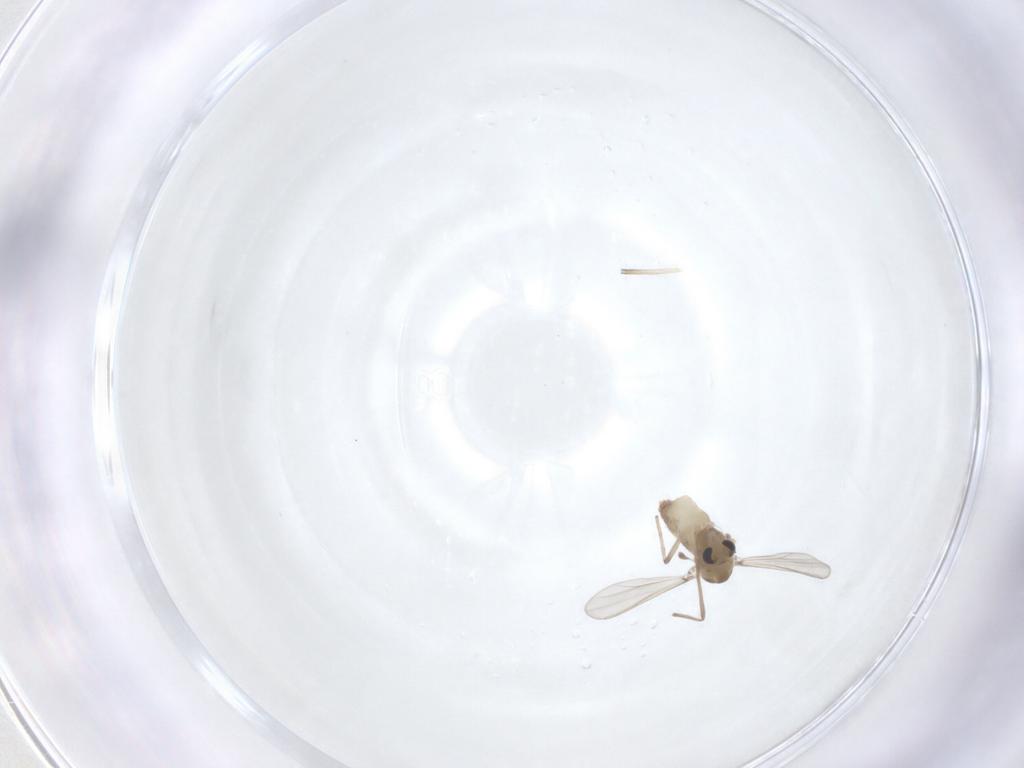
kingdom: Animalia
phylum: Arthropoda
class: Insecta
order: Diptera
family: Chironomidae
